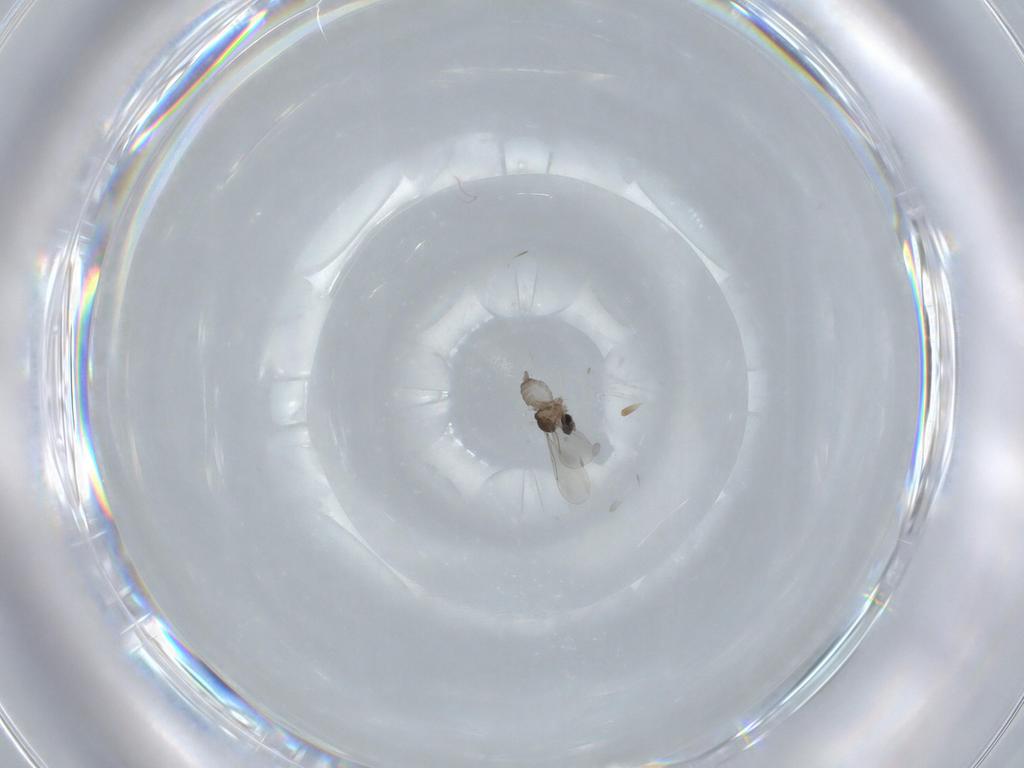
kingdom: Animalia
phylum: Arthropoda
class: Insecta
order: Diptera
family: Cecidomyiidae
